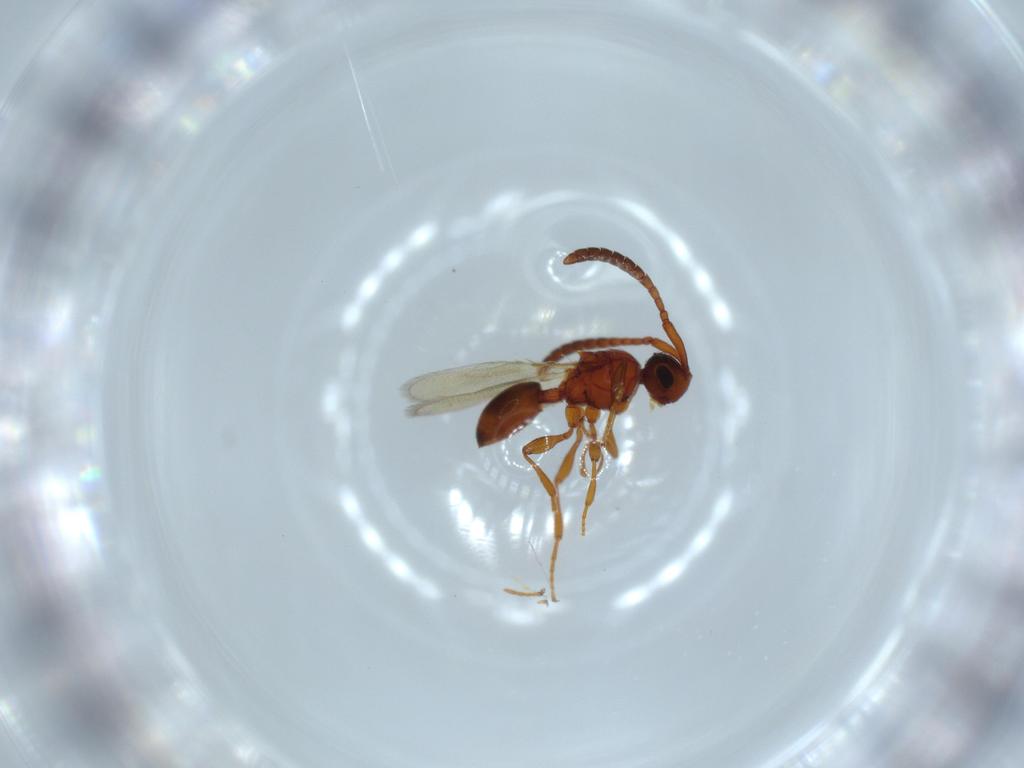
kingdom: Animalia
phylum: Arthropoda
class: Insecta
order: Hymenoptera
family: Diapriidae
